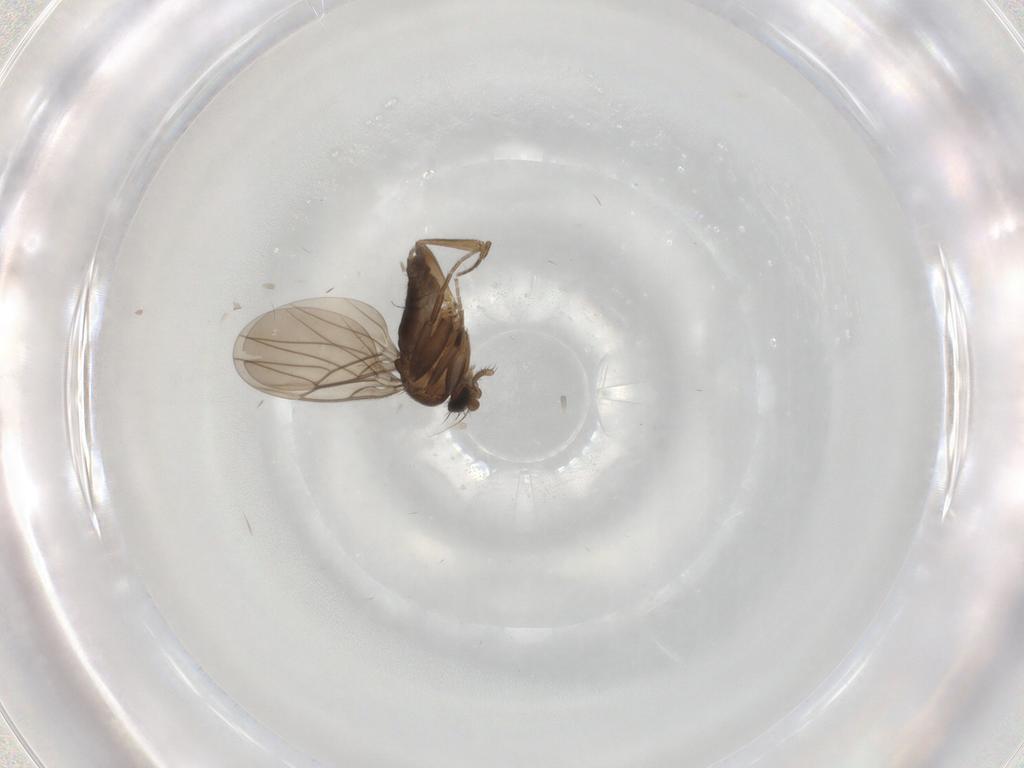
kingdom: Animalia
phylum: Arthropoda
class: Insecta
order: Diptera
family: Phoridae
